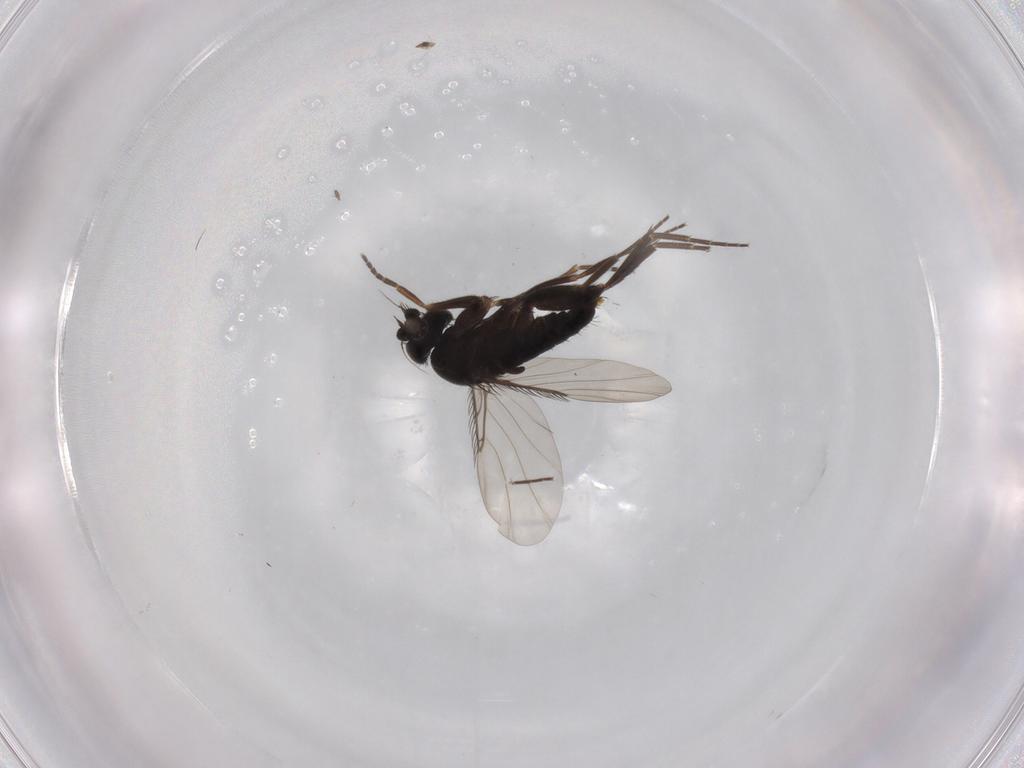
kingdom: Animalia
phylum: Arthropoda
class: Insecta
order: Diptera
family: Phoridae
